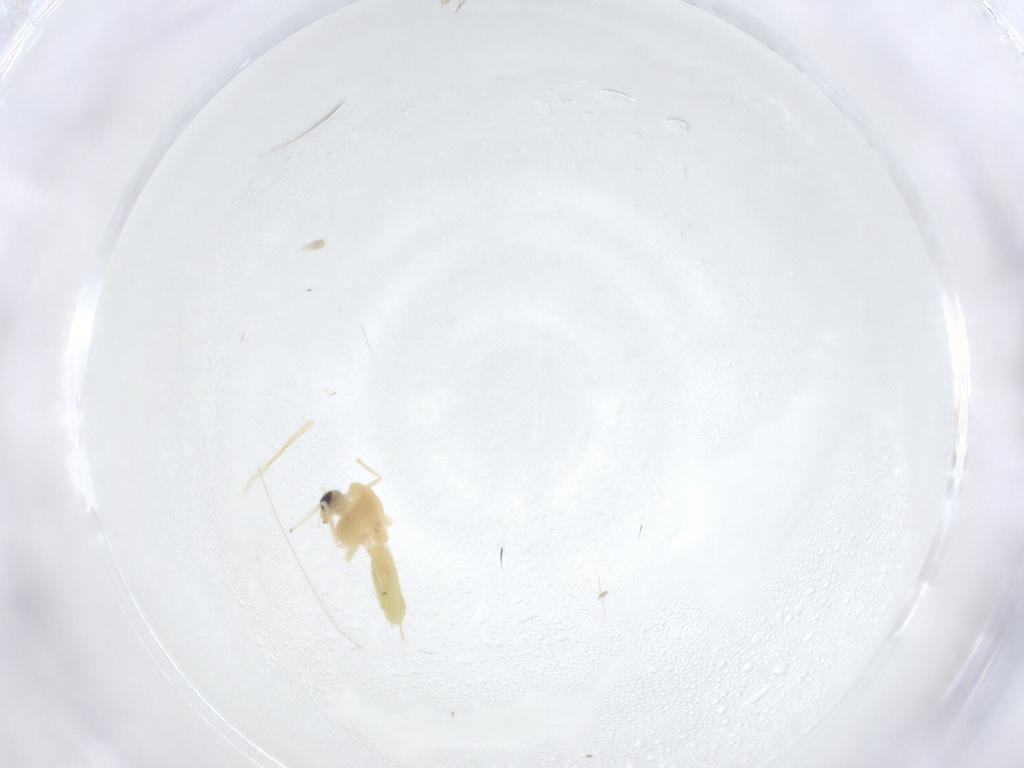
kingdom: Animalia
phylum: Arthropoda
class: Insecta
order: Diptera
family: Chironomidae
